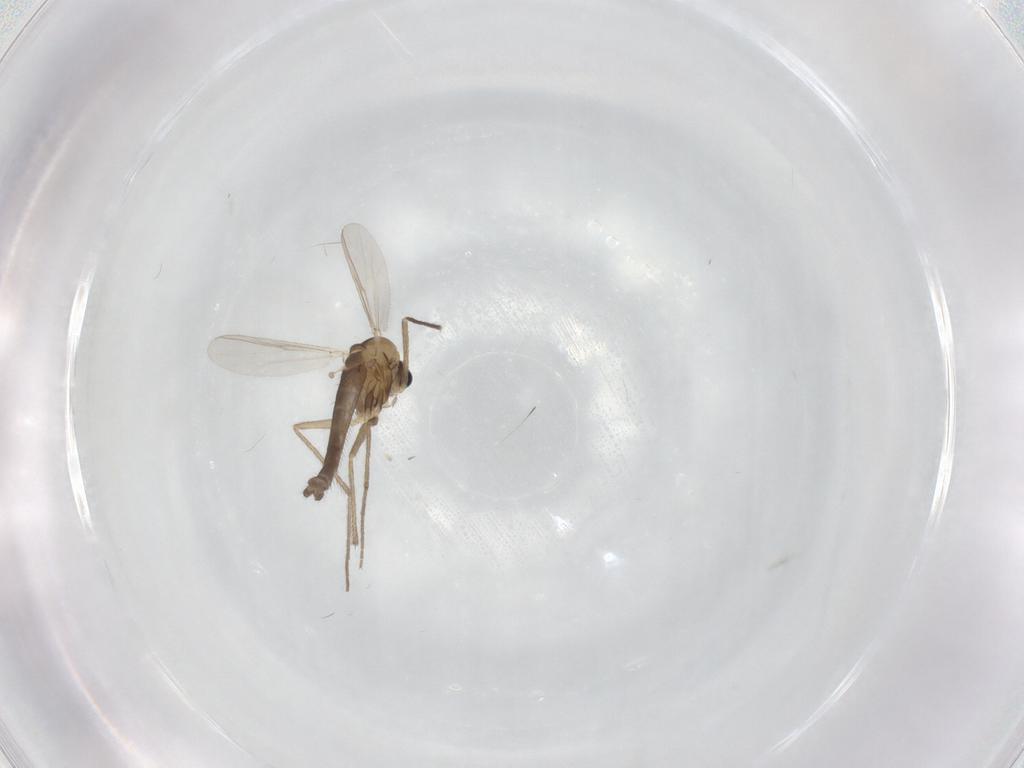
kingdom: Animalia
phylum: Arthropoda
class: Insecta
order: Diptera
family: Chironomidae
